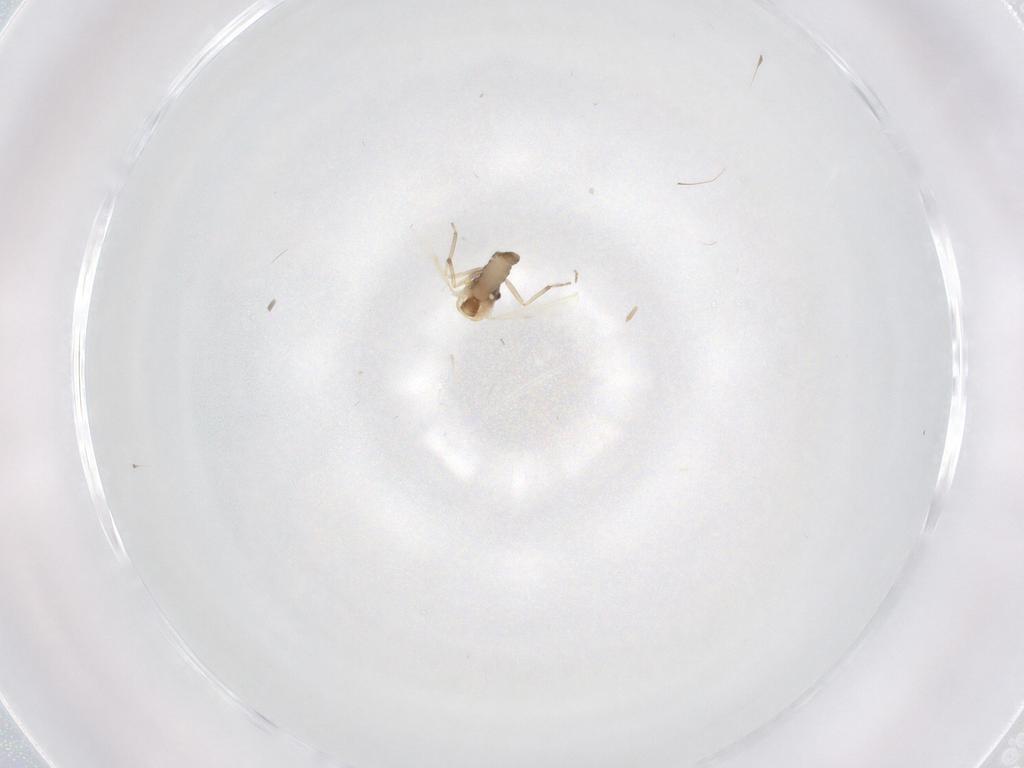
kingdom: Animalia
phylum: Arthropoda
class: Insecta
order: Diptera
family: Ceratopogonidae
